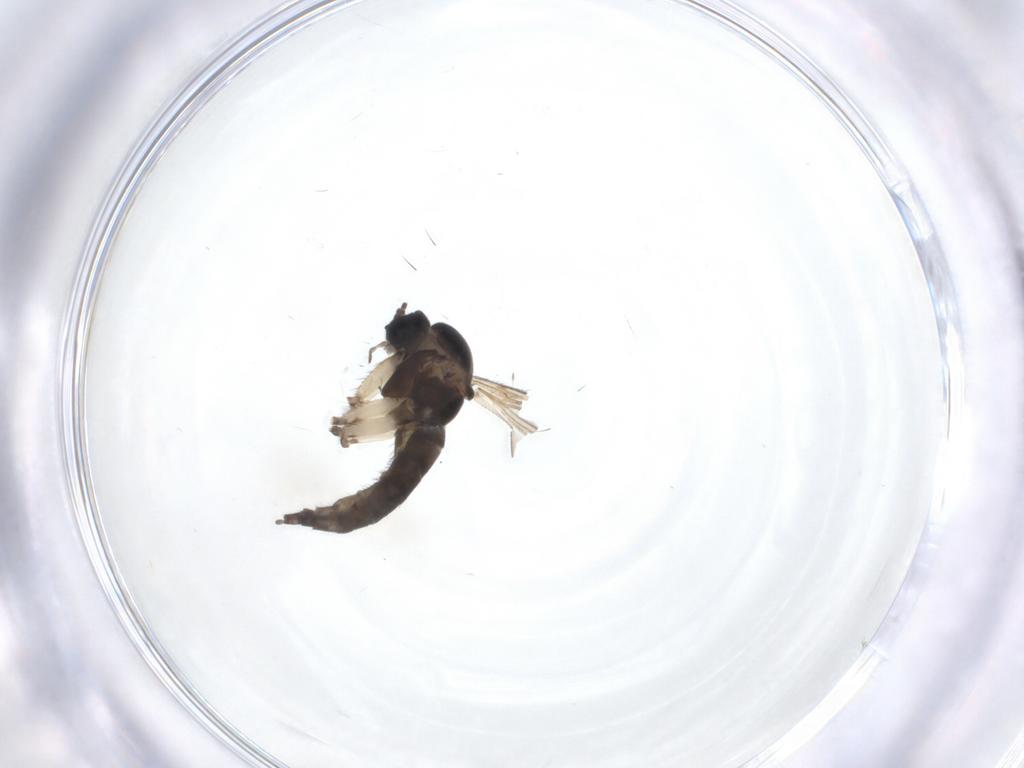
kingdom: Animalia
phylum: Arthropoda
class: Insecta
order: Diptera
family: Sciaridae
